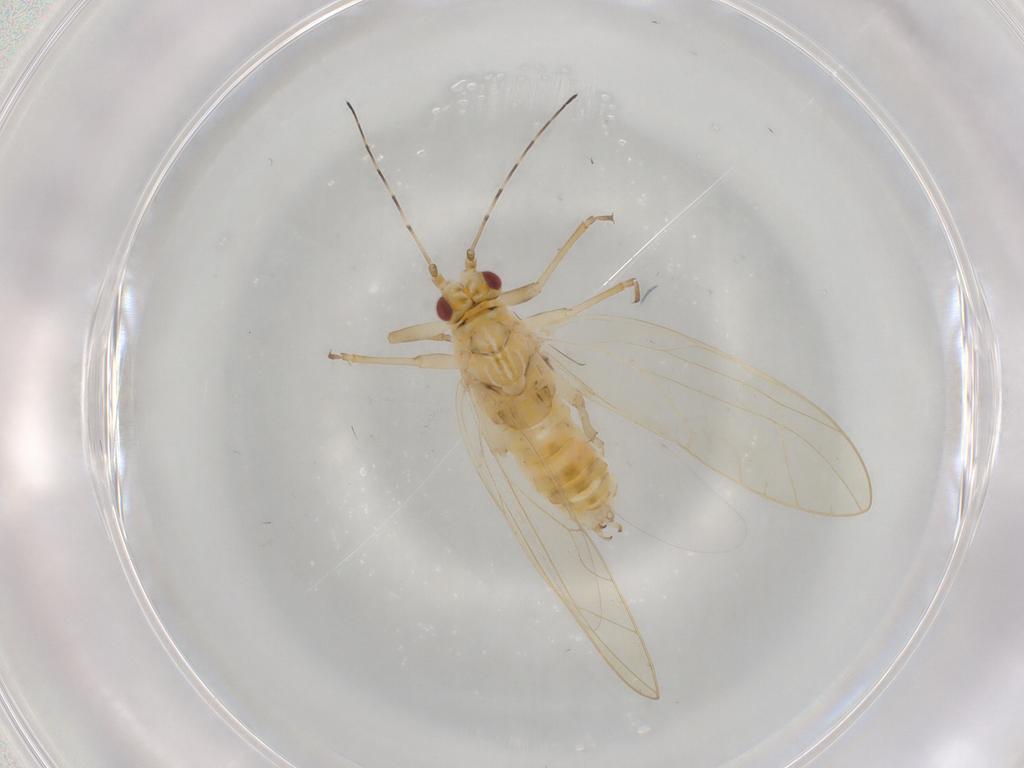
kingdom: Animalia
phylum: Arthropoda
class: Insecta
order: Hemiptera
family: Carsidaridae
